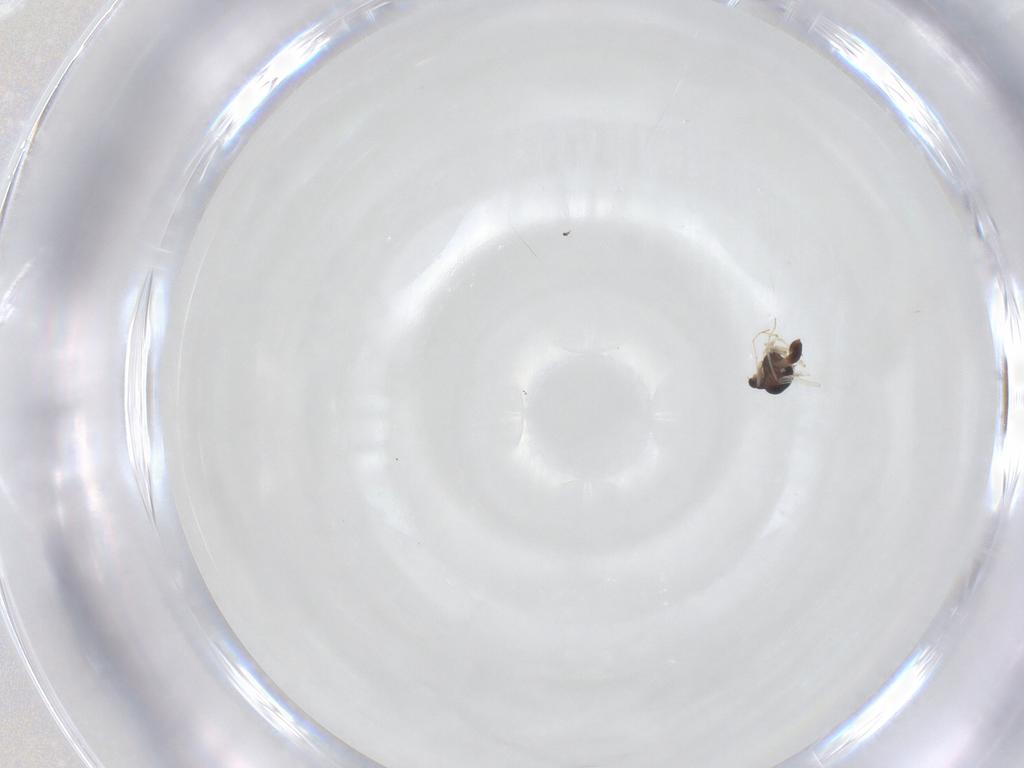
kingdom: Animalia
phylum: Arthropoda
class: Insecta
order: Diptera
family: Chironomidae
